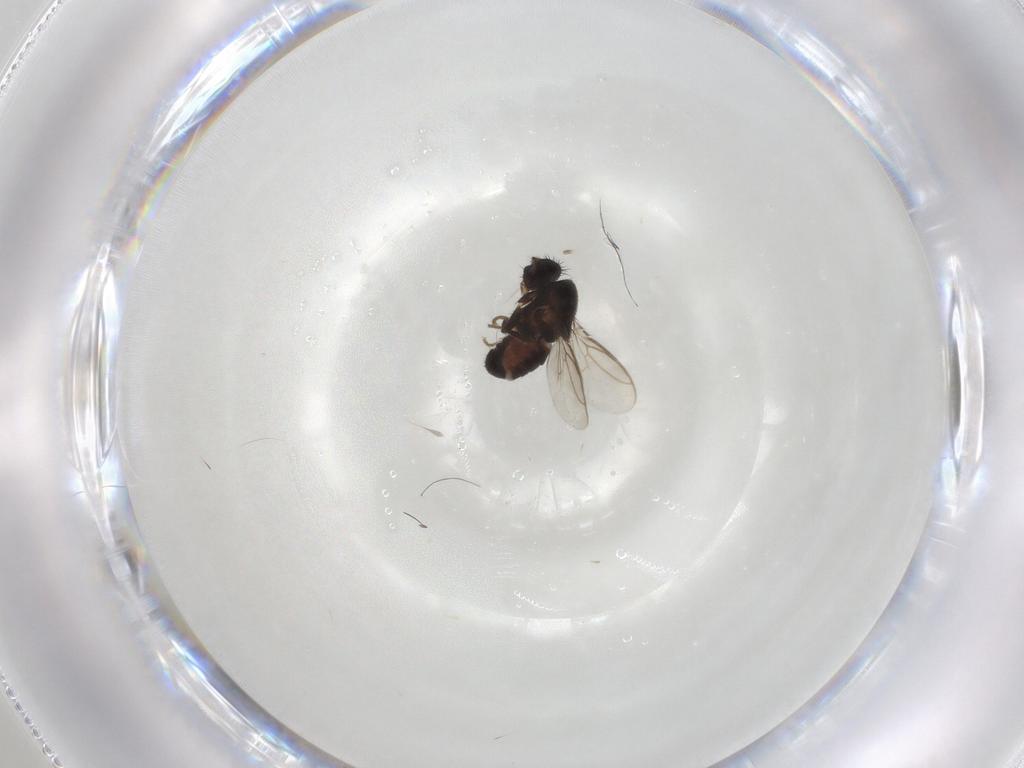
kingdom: Animalia
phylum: Arthropoda
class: Insecta
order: Diptera
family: Sphaeroceridae
